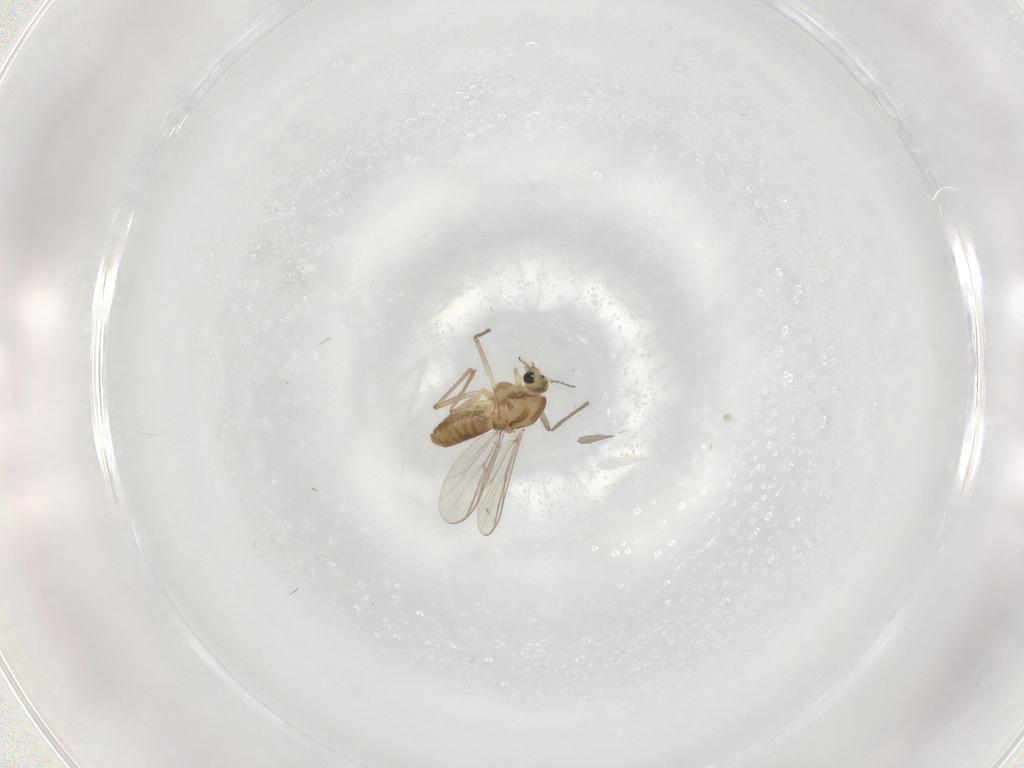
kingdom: Animalia
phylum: Arthropoda
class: Insecta
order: Diptera
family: Chironomidae
